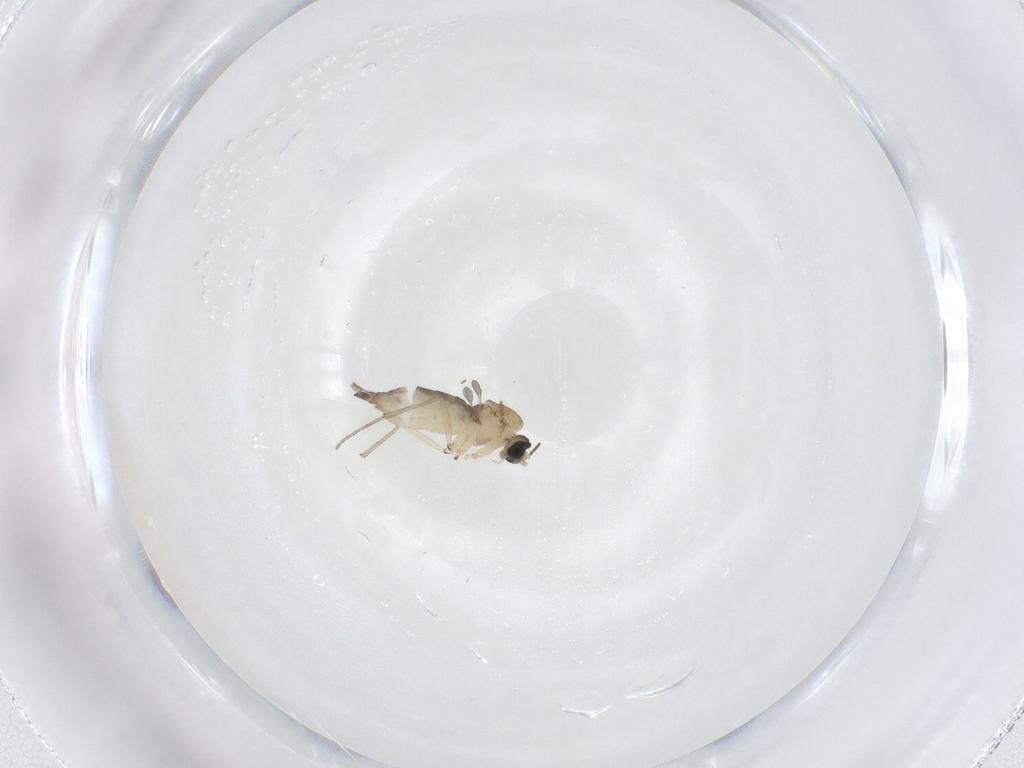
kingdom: Animalia
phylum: Arthropoda
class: Insecta
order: Diptera
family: Sciaridae
